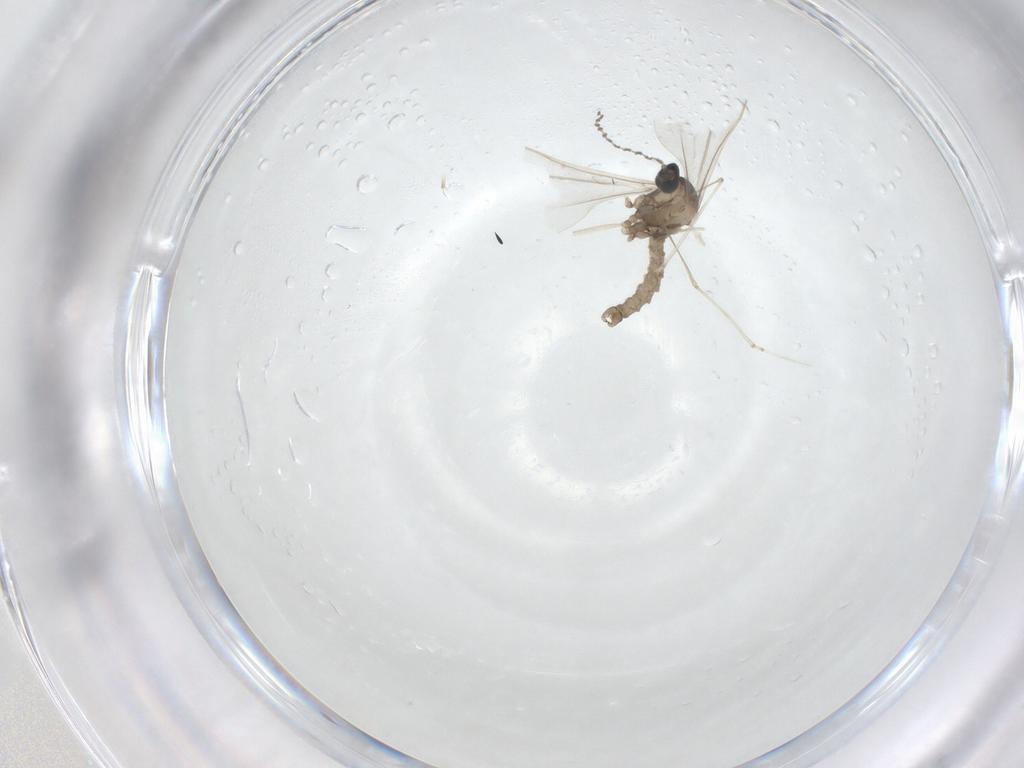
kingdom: Animalia
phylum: Arthropoda
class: Insecta
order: Diptera
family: Cecidomyiidae
